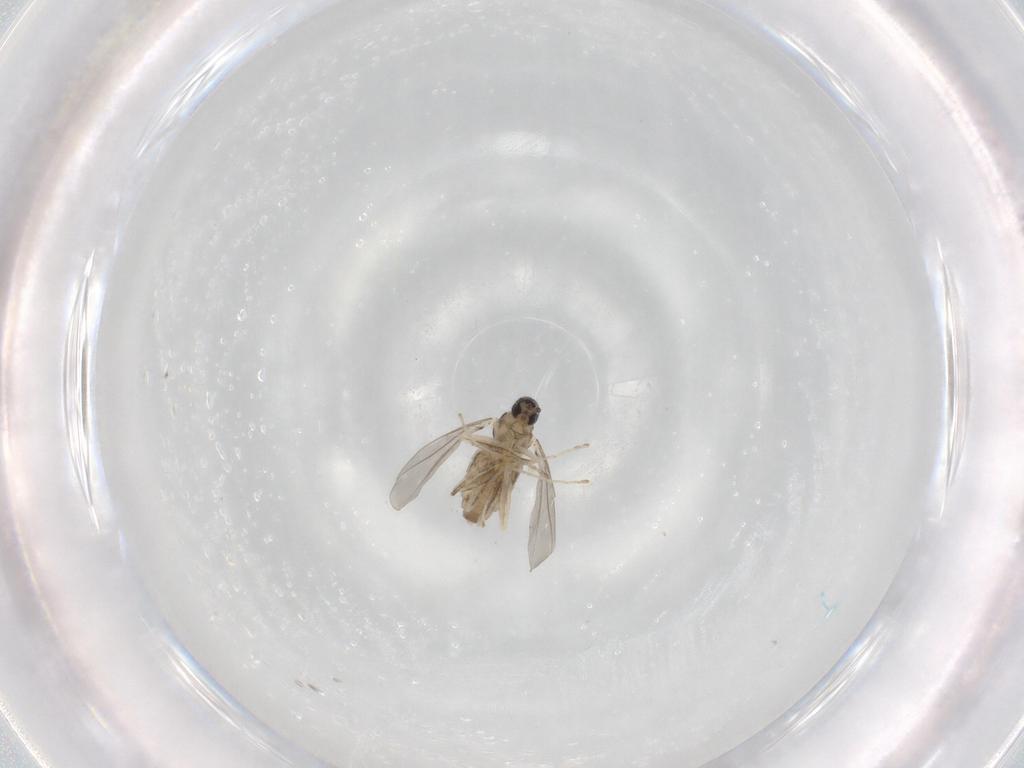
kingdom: Animalia
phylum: Arthropoda
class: Insecta
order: Diptera
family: Cecidomyiidae
